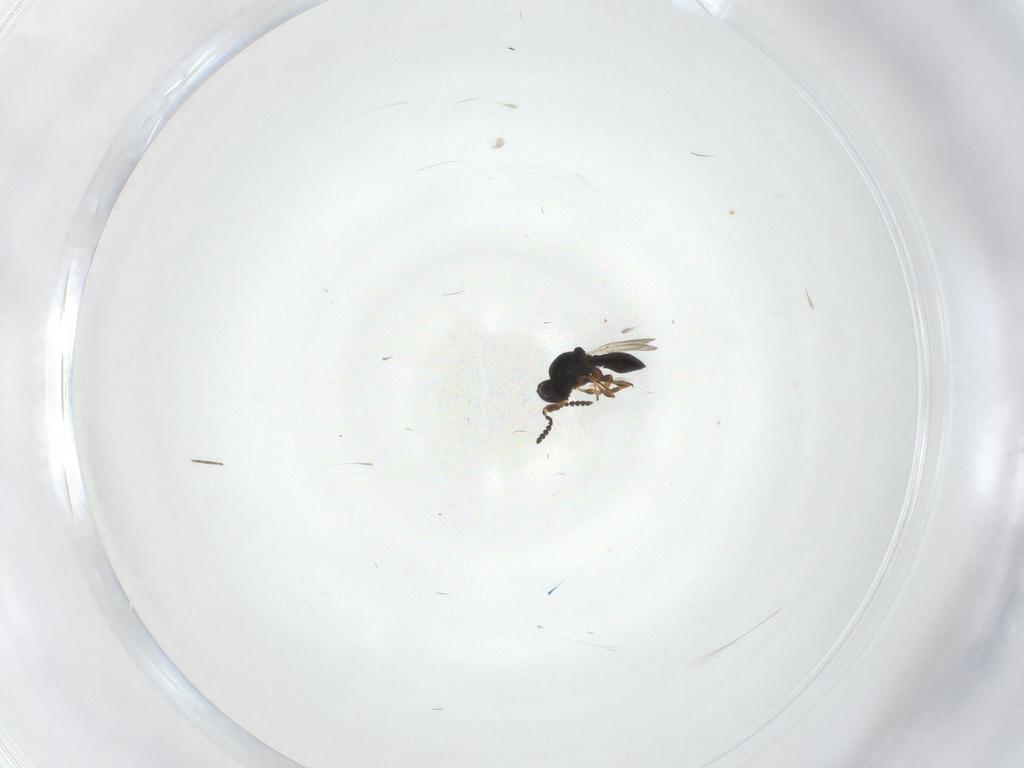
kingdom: Animalia
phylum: Arthropoda
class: Insecta
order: Hymenoptera
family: Platygastridae
